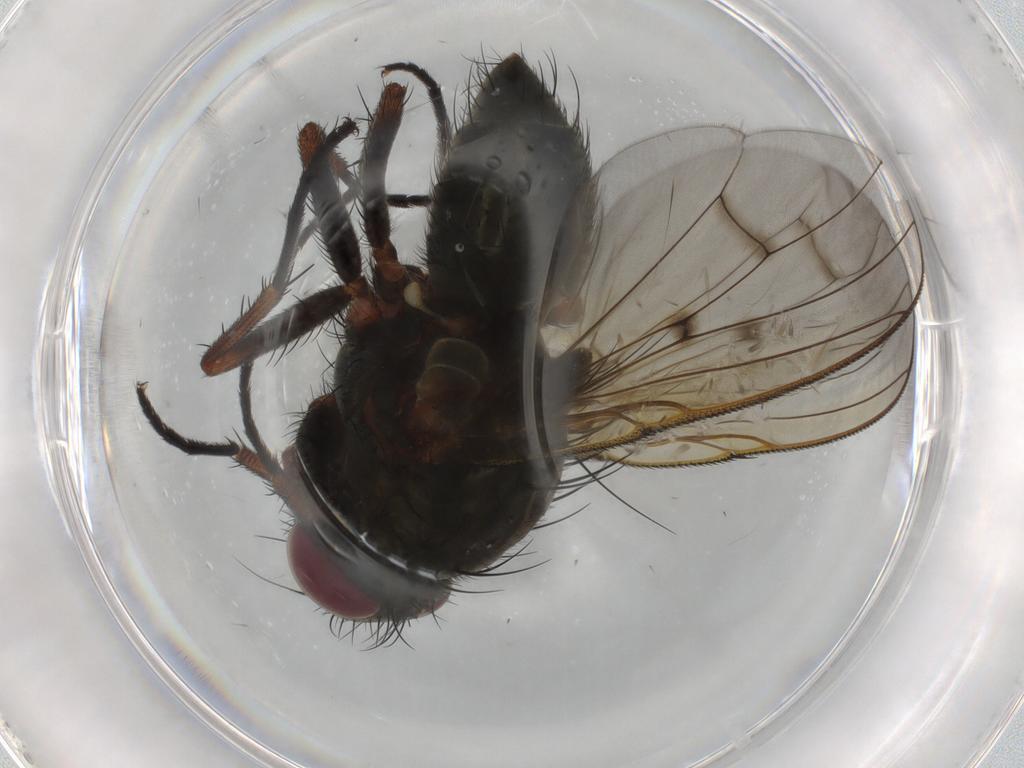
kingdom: Animalia
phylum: Arthropoda
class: Insecta
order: Diptera
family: Muscidae
